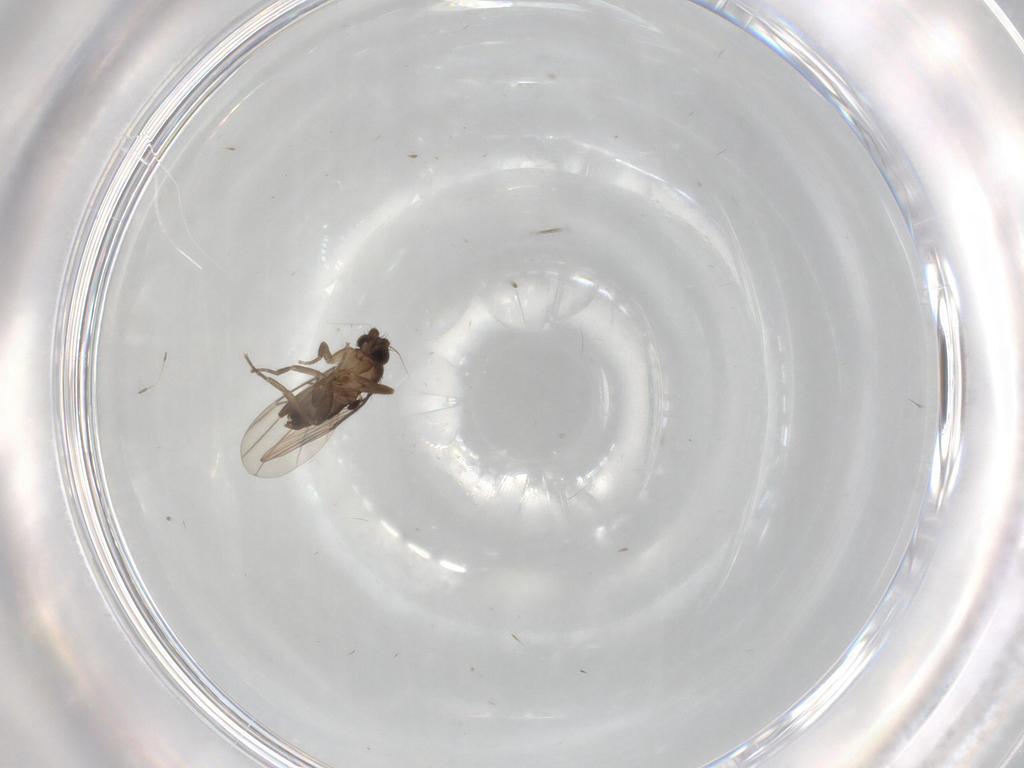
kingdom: Animalia
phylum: Arthropoda
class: Insecta
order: Diptera
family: Phoridae
